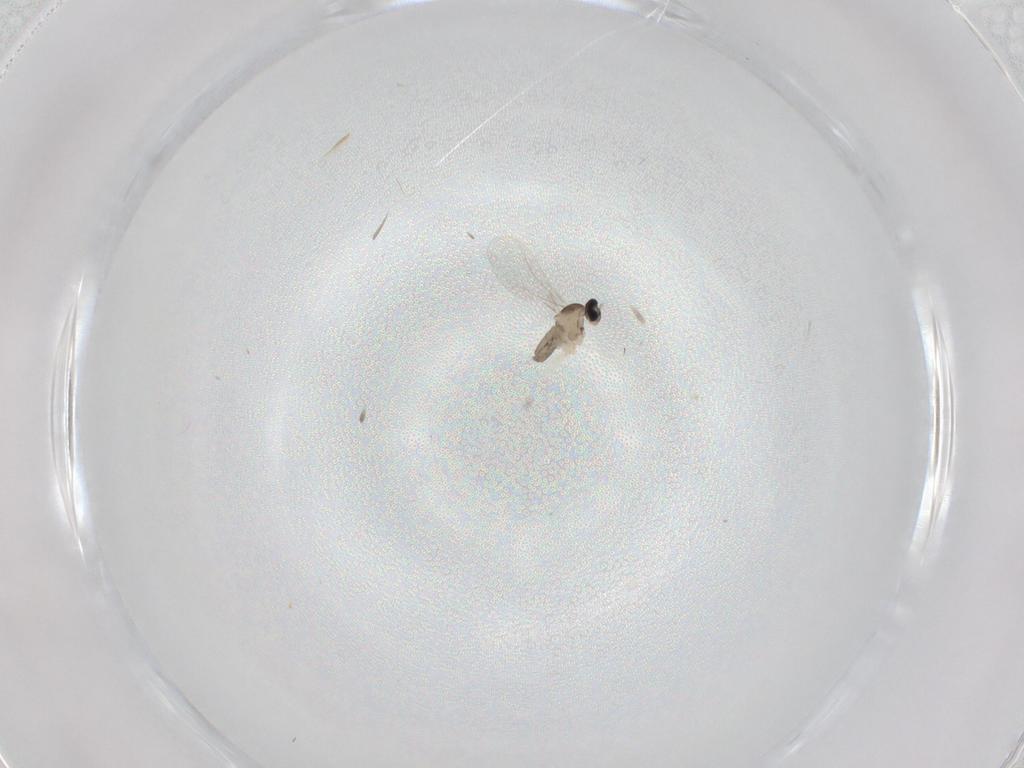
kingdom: Animalia
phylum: Arthropoda
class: Insecta
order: Diptera
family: Cecidomyiidae
